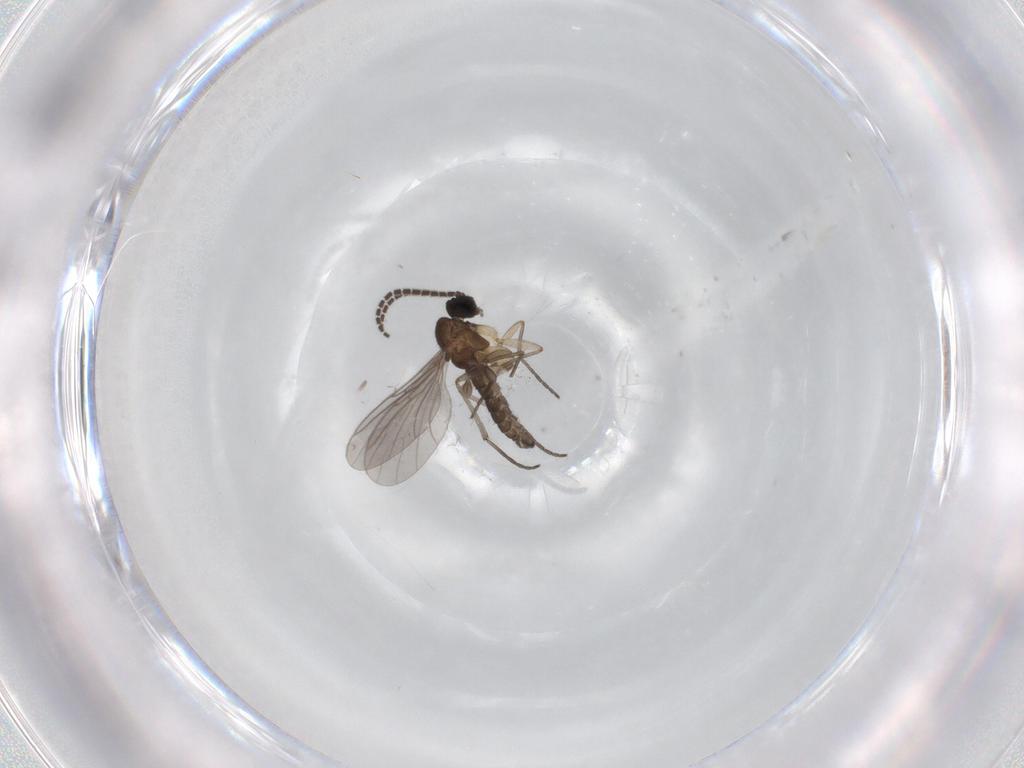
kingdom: Animalia
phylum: Arthropoda
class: Insecta
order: Diptera
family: Sciaridae
